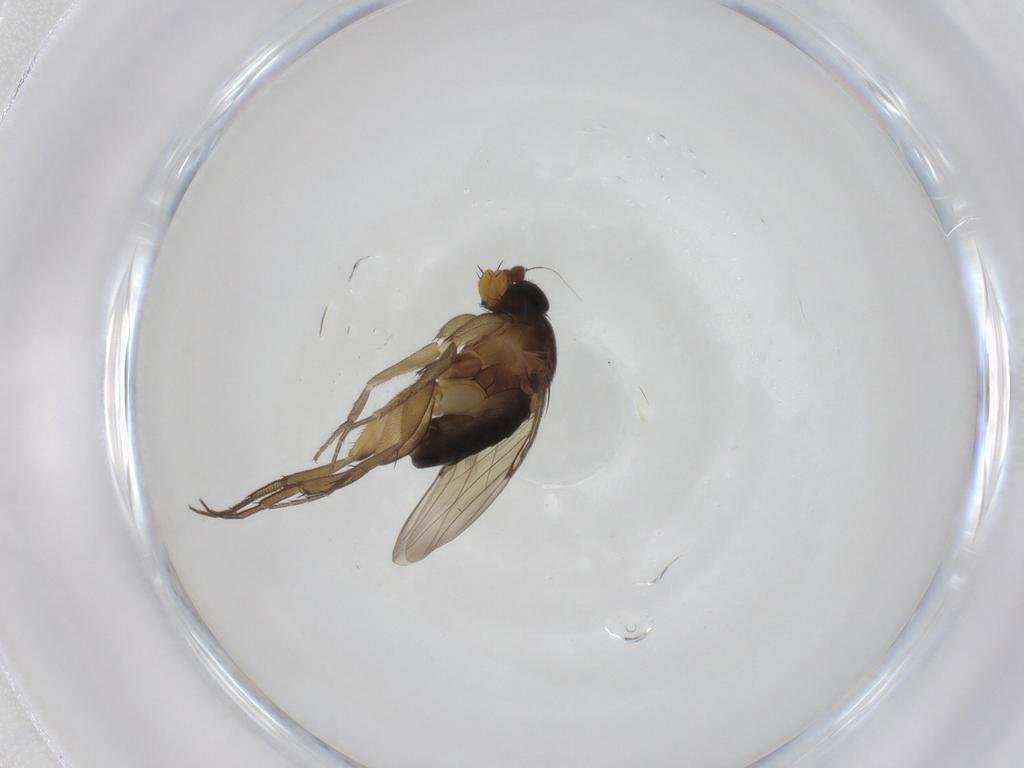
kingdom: Animalia
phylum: Arthropoda
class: Insecta
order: Diptera
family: Phoridae
